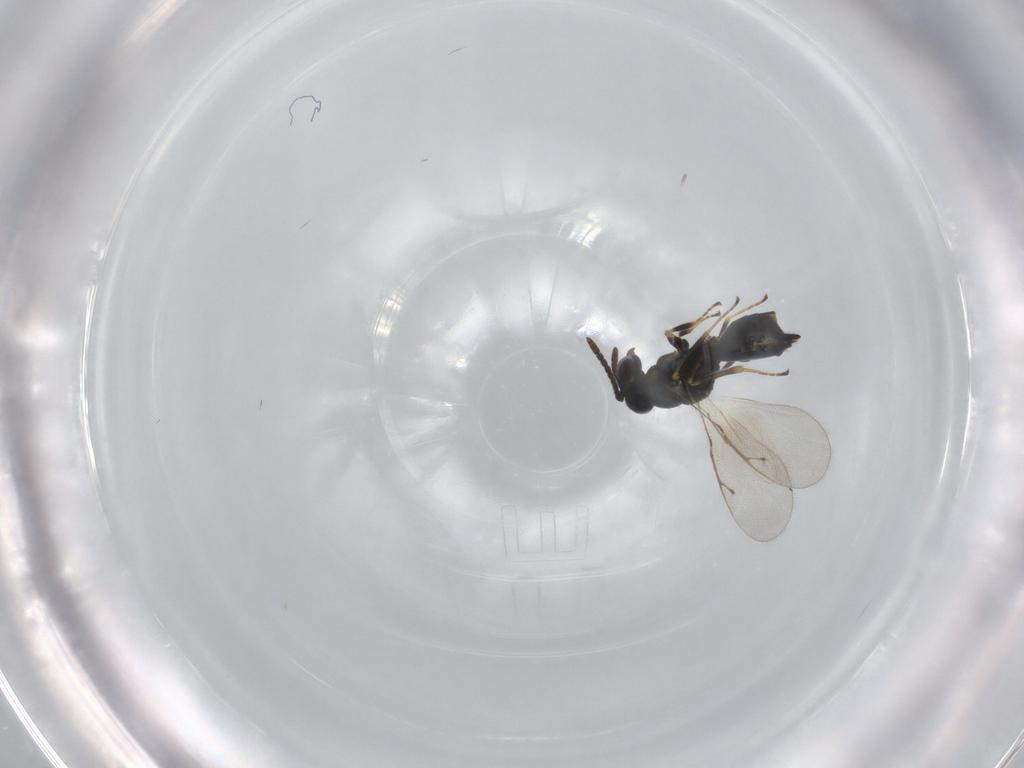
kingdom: Animalia
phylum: Arthropoda
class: Insecta
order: Hymenoptera
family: Pteromalidae
